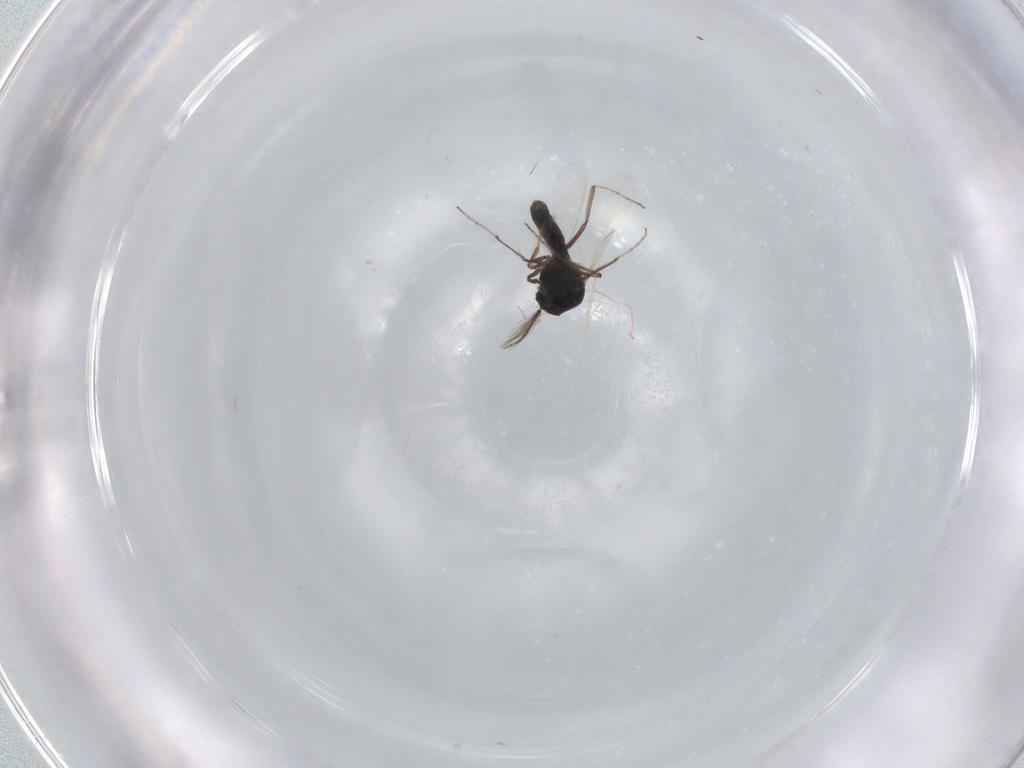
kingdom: Animalia
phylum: Arthropoda
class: Insecta
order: Diptera
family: Ceratopogonidae
